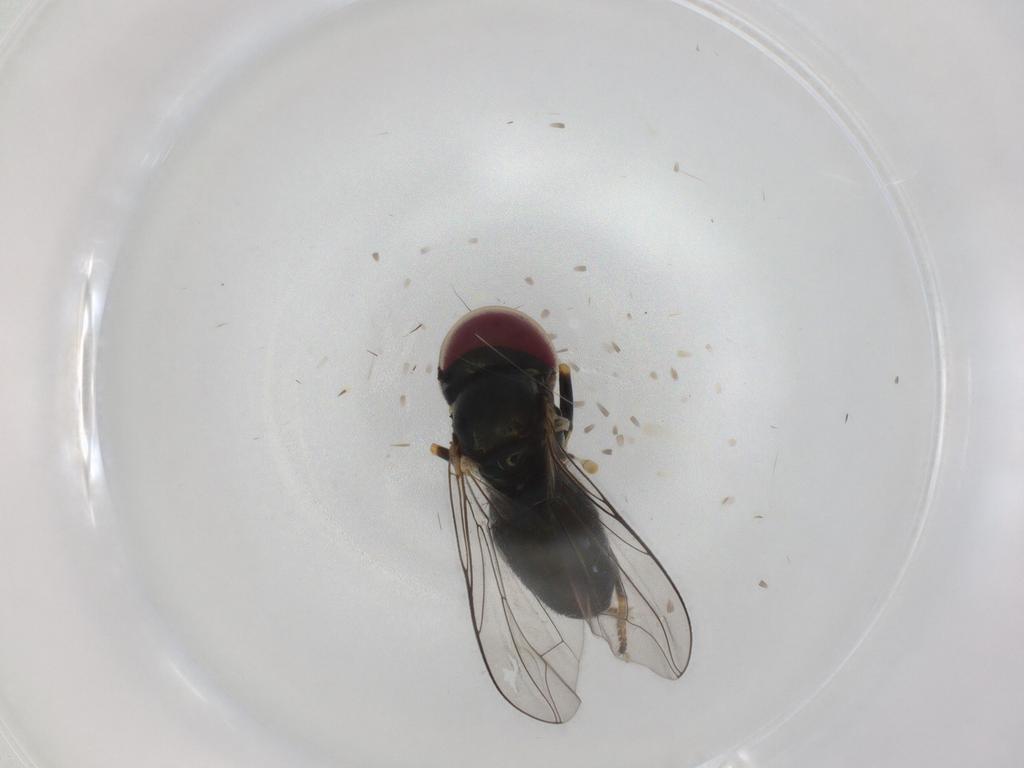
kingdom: Animalia
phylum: Arthropoda
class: Insecta
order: Diptera
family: Pipunculidae
